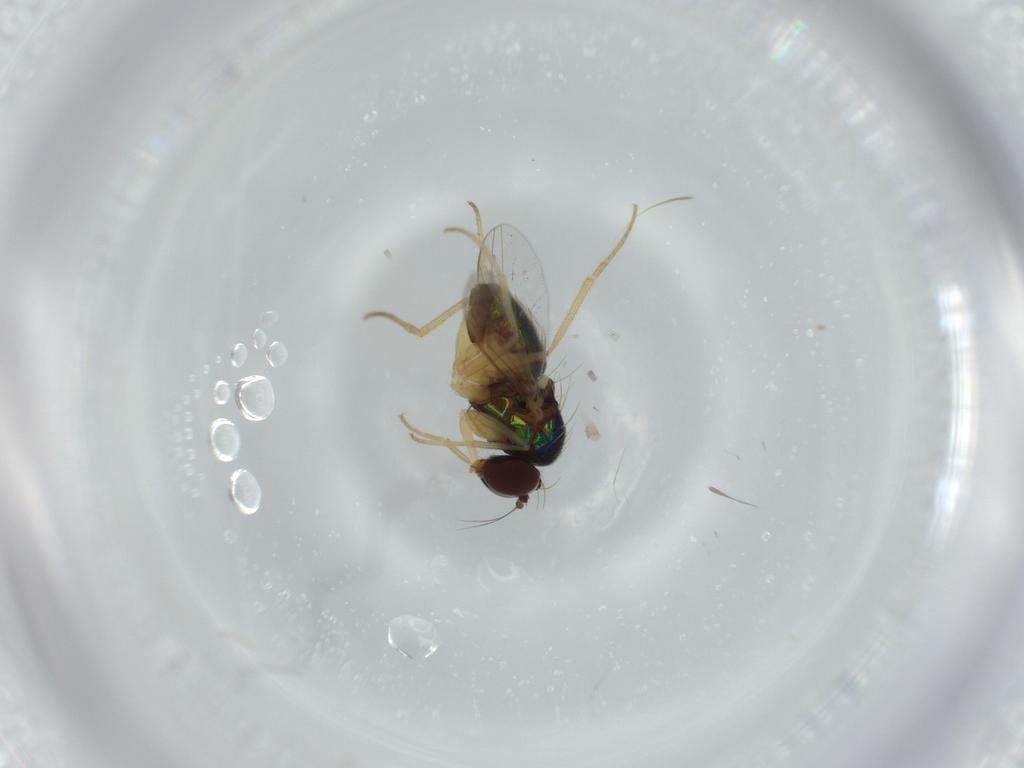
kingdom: Animalia
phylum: Arthropoda
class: Insecta
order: Diptera
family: Dolichopodidae
